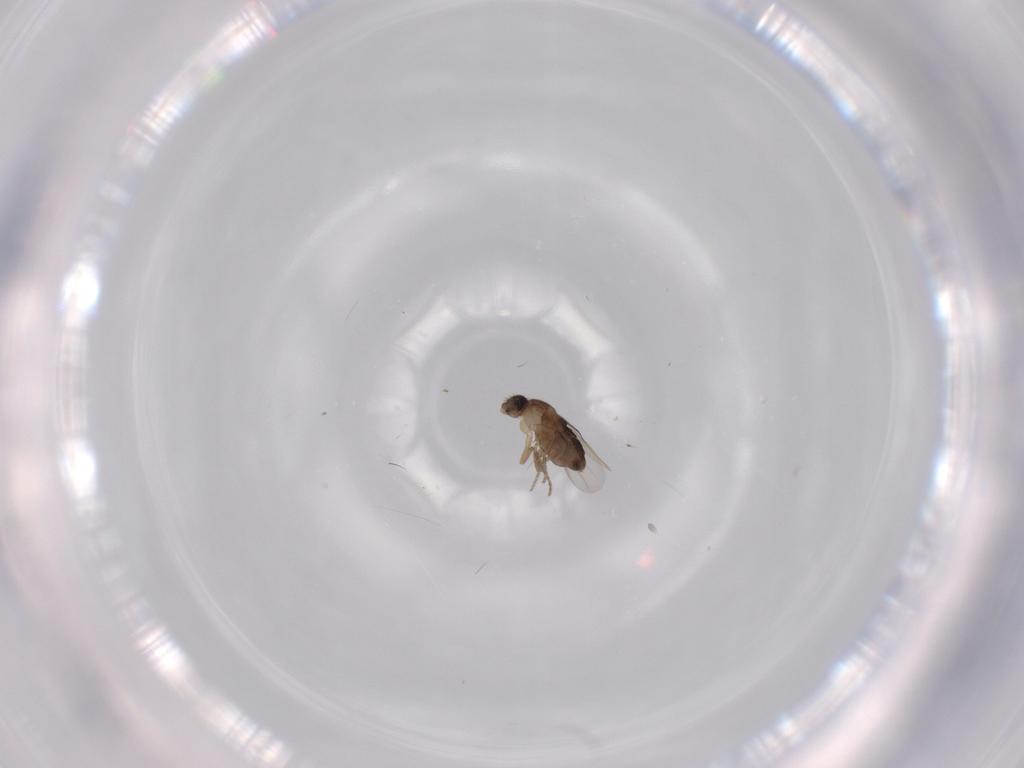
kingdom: Animalia
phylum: Arthropoda
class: Insecta
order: Diptera
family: Phoridae
